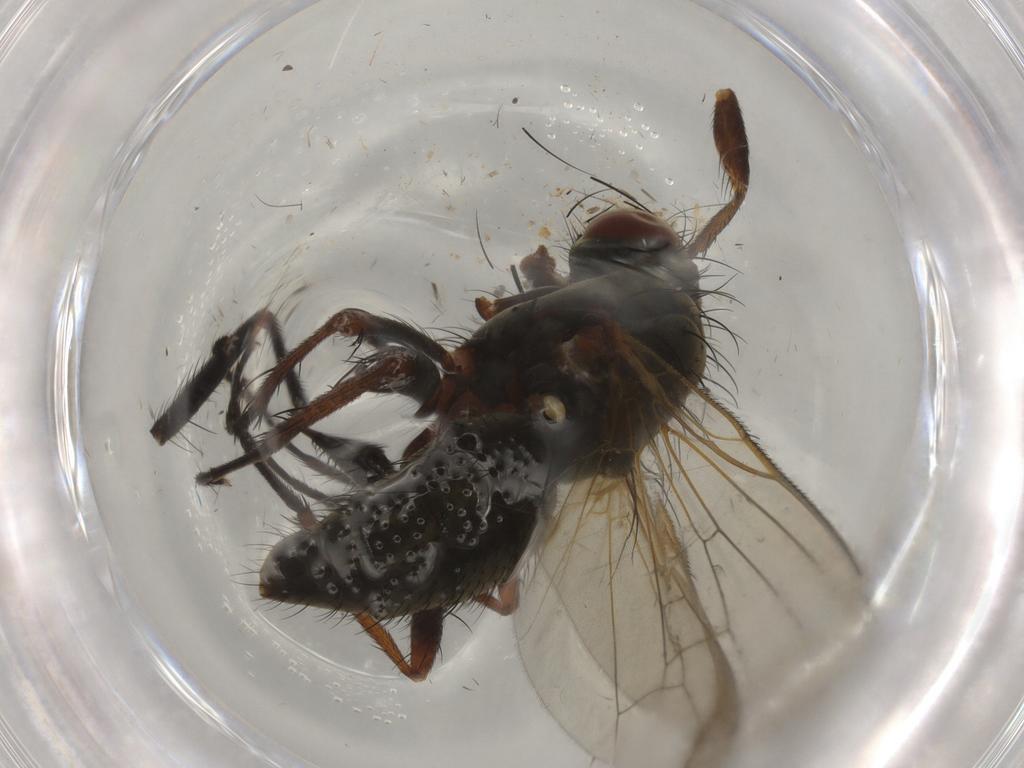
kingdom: Animalia
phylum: Arthropoda
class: Insecta
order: Diptera
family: Anthomyiidae
